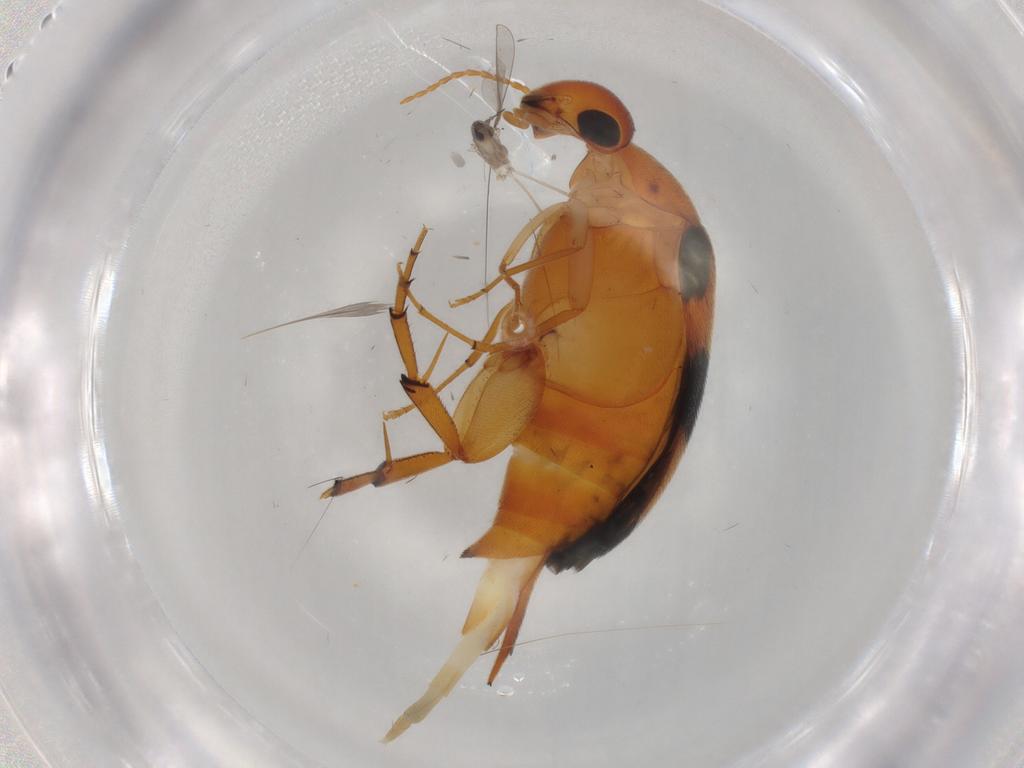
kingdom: Animalia
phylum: Arthropoda
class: Insecta
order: Coleoptera
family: Mordellidae
